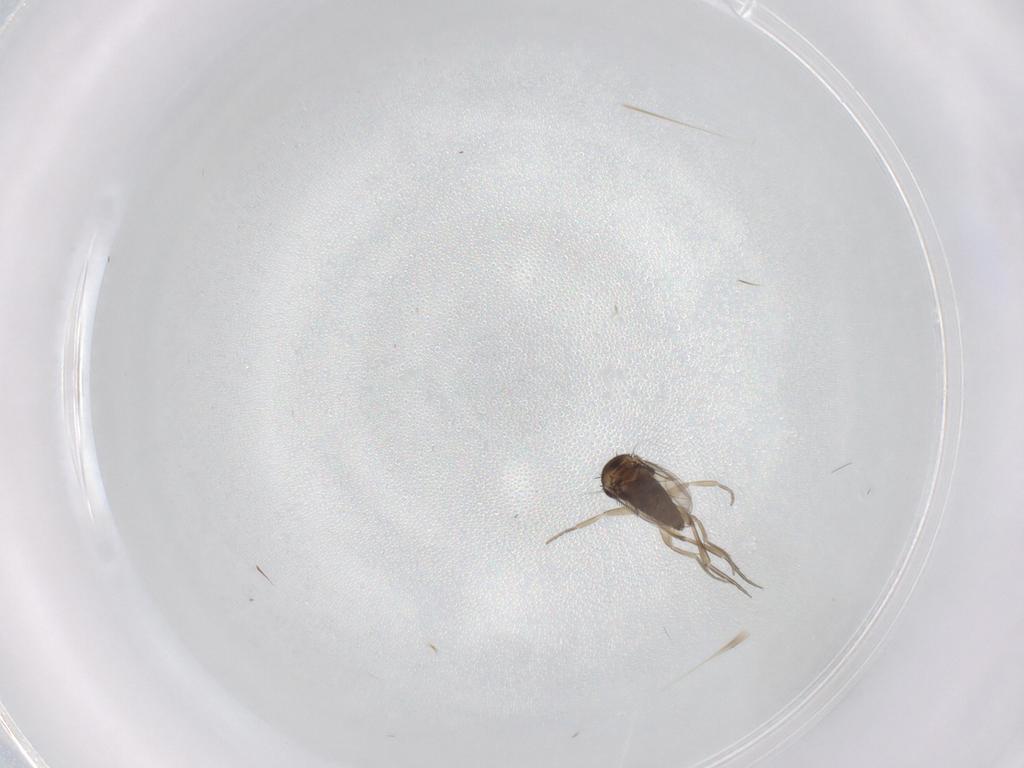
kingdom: Animalia
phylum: Arthropoda
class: Insecta
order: Diptera
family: Phoridae
